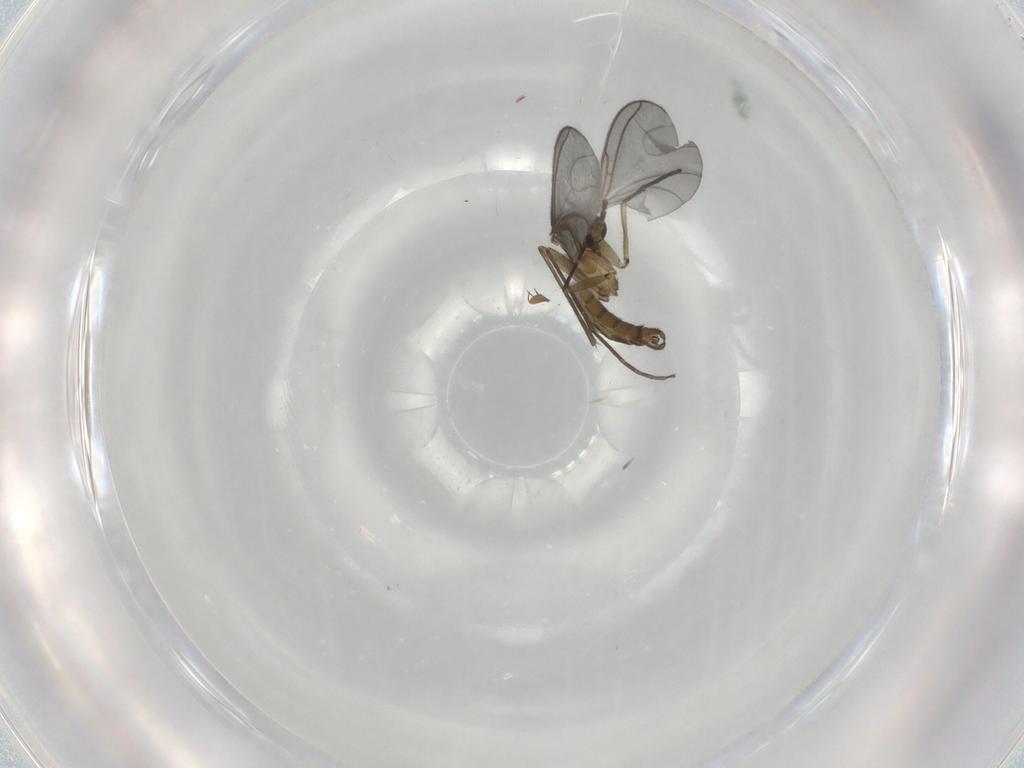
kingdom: Animalia
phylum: Arthropoda
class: Insecta
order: Diptera
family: Sciaridae
